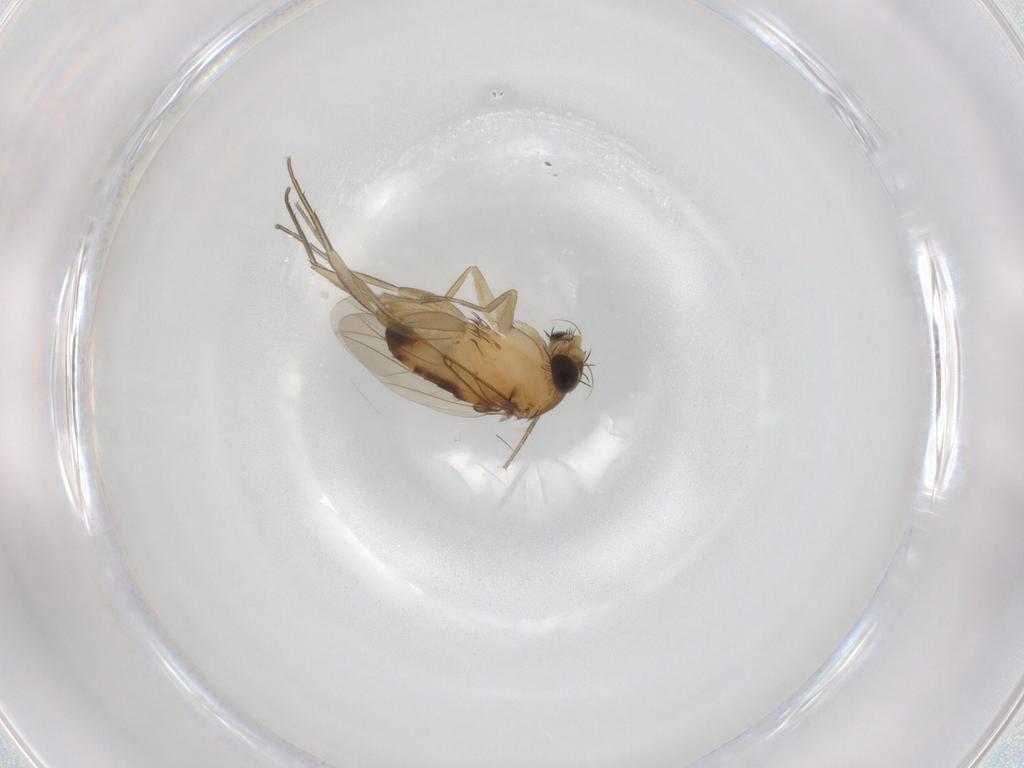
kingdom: Animalia
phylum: Arthropoda
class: Insecta
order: Diptera
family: Phoridae
